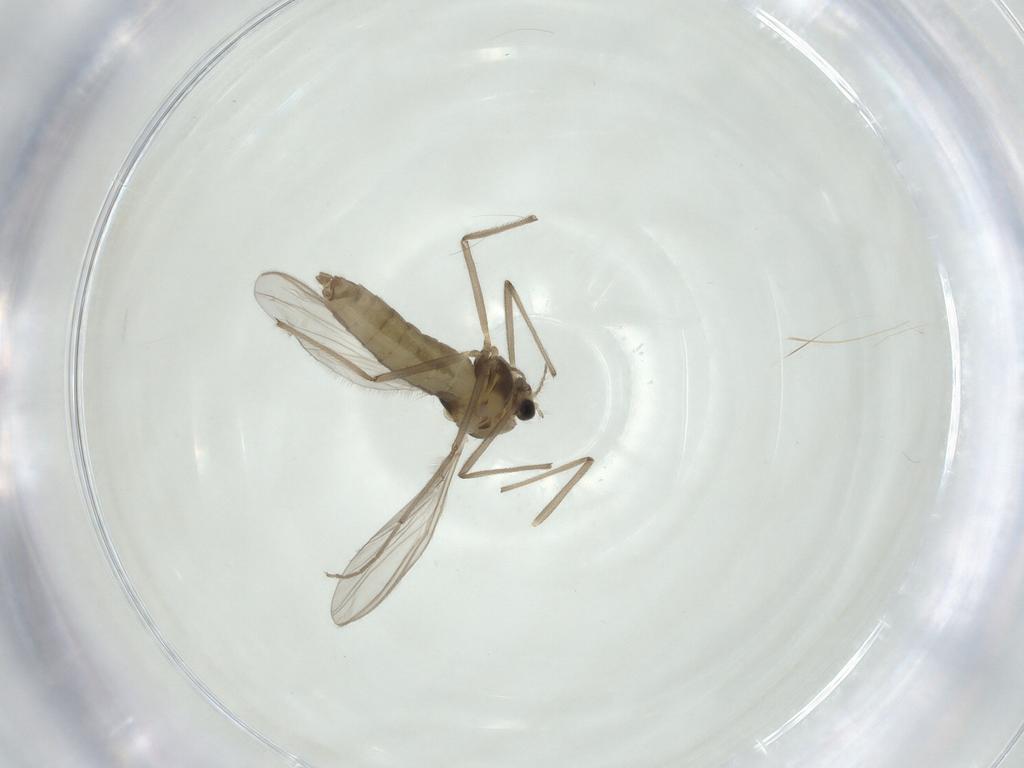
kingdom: Animalia
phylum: Arthropoda
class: Insecta
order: Diptera
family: Ceratopogonidae
